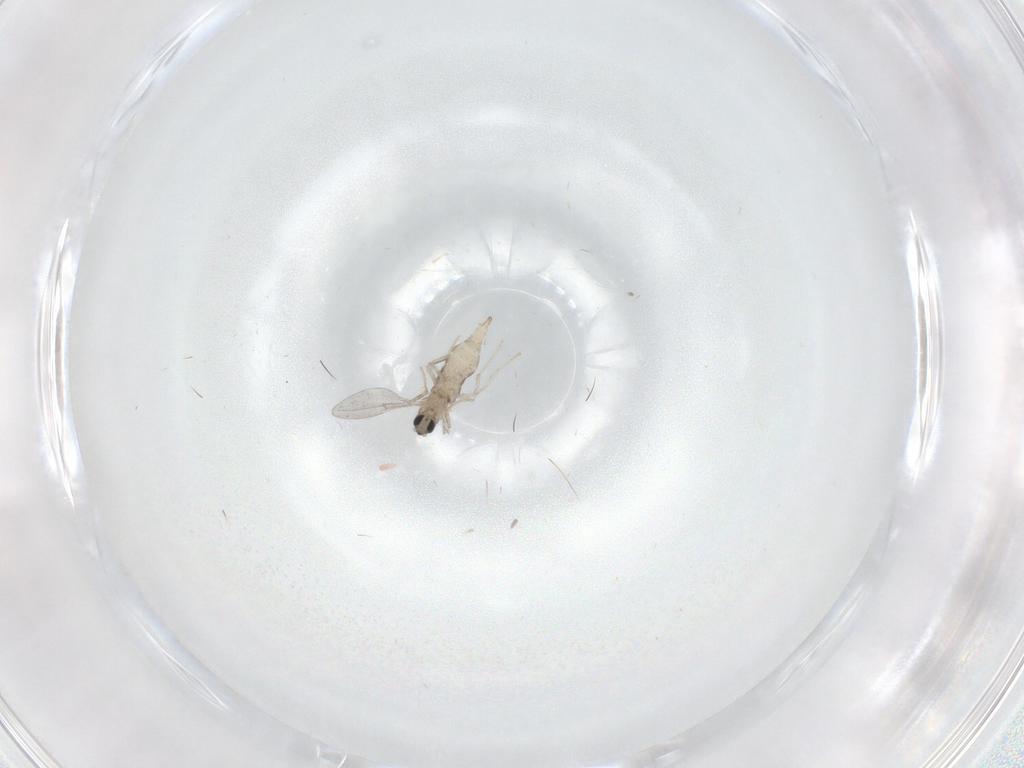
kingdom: Animalia
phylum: Arthropoda
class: Insecta
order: Diptera
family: Cecidomyiidae
